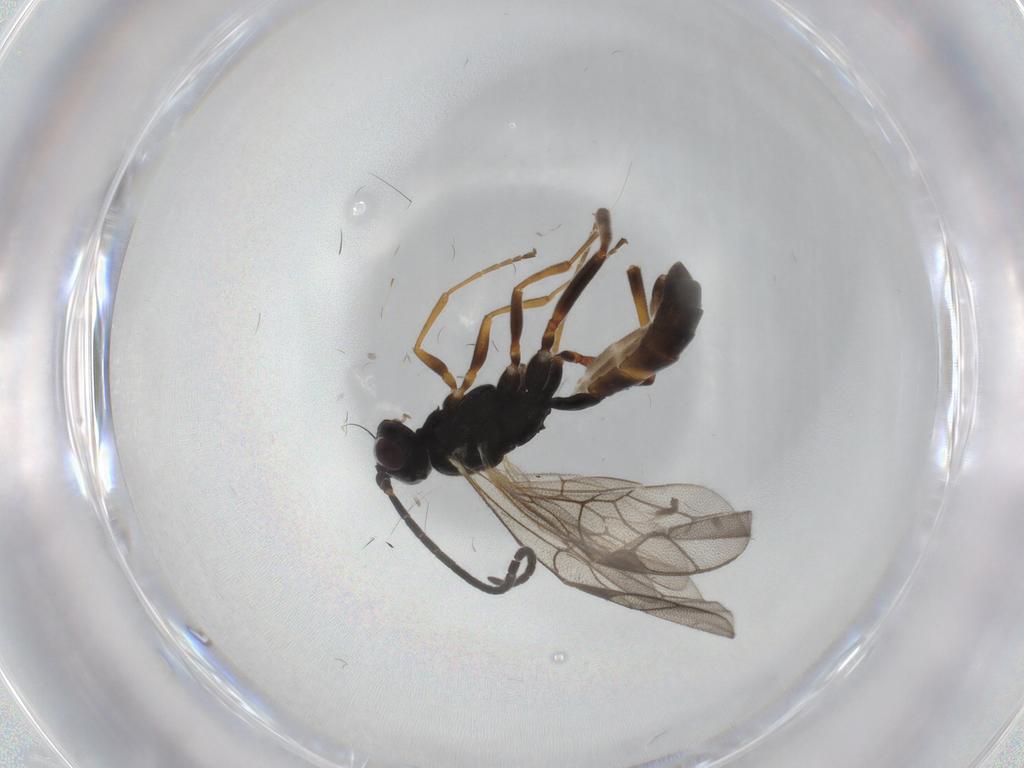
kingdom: Animalia
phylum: Arthropoda
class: Insecta
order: Hymenoptera
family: Ichneumonidae
